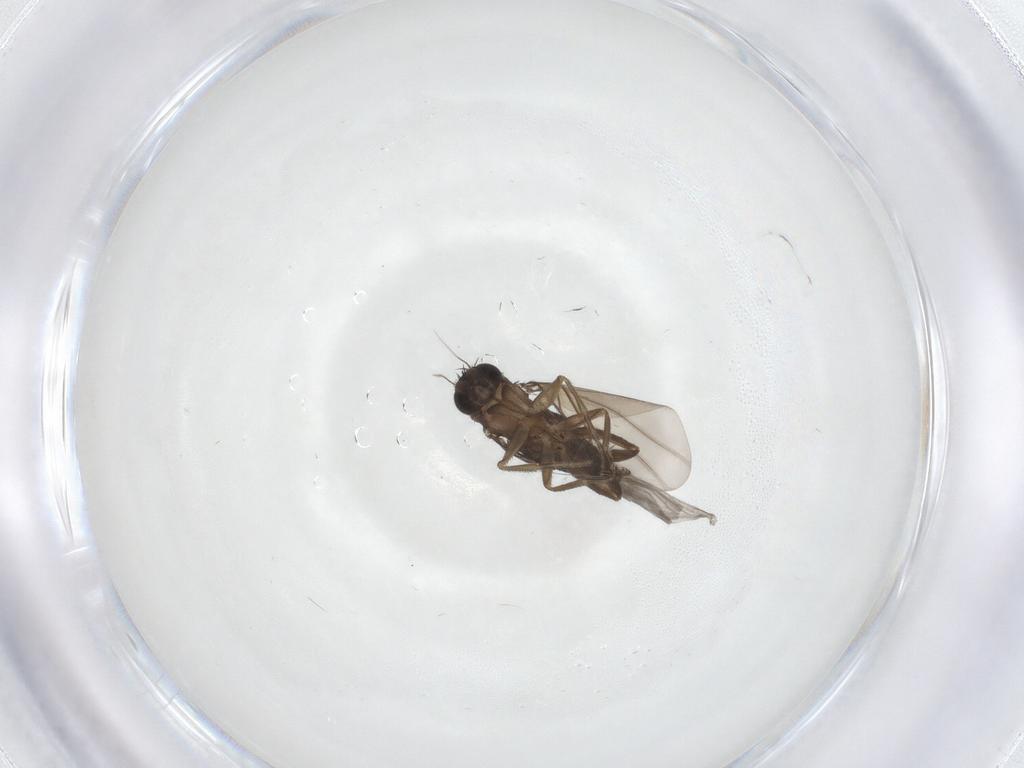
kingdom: Animalia
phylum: Arthropoda
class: Insecta
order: Diptera
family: Phoridae
